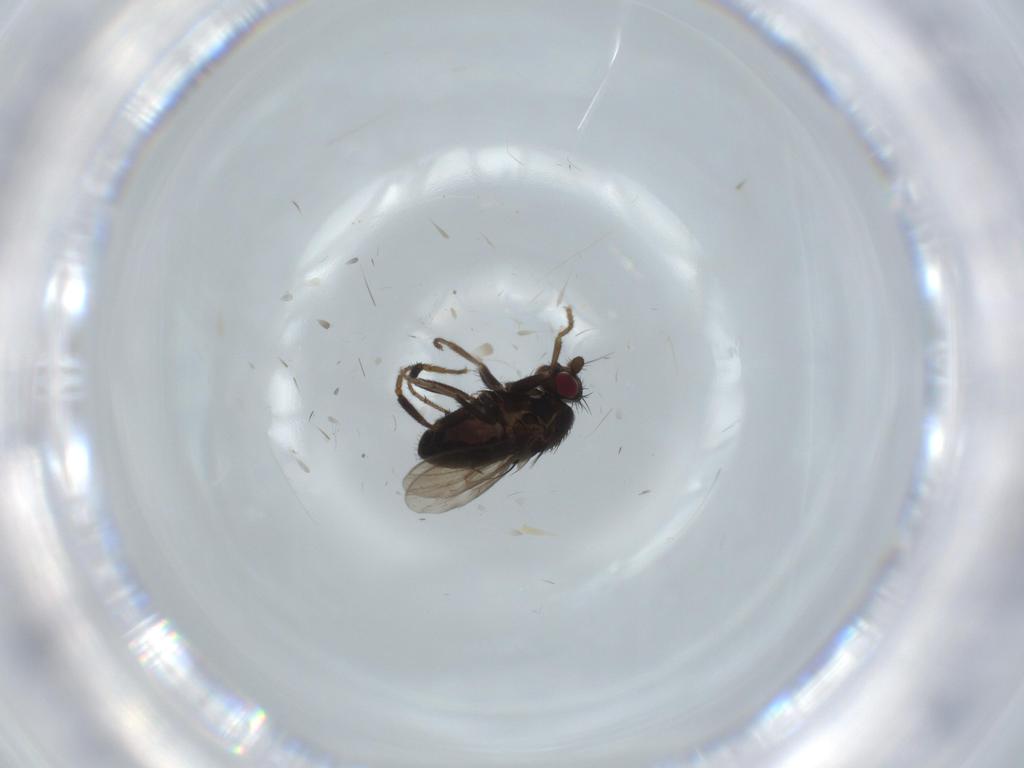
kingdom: Animalia
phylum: Arthropoda
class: Insecta
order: Diptera
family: Sphaeroceridae
